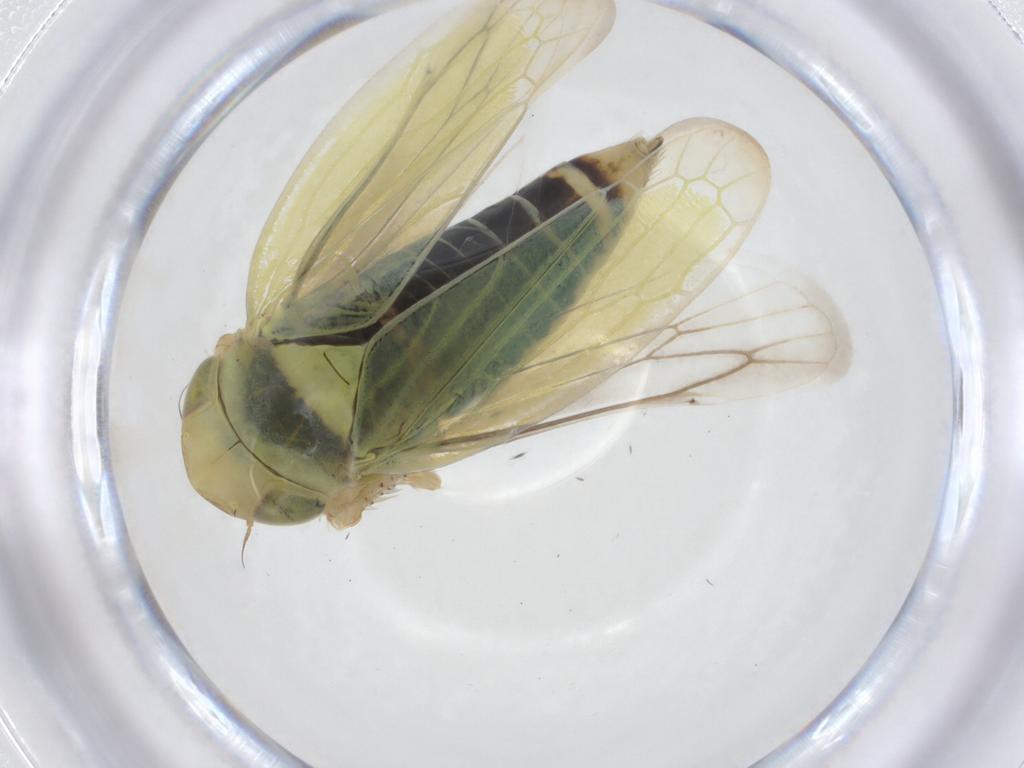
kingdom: Animalia
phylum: Arthropoda
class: Insecta
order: Hemiptera
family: Cicadellidae
